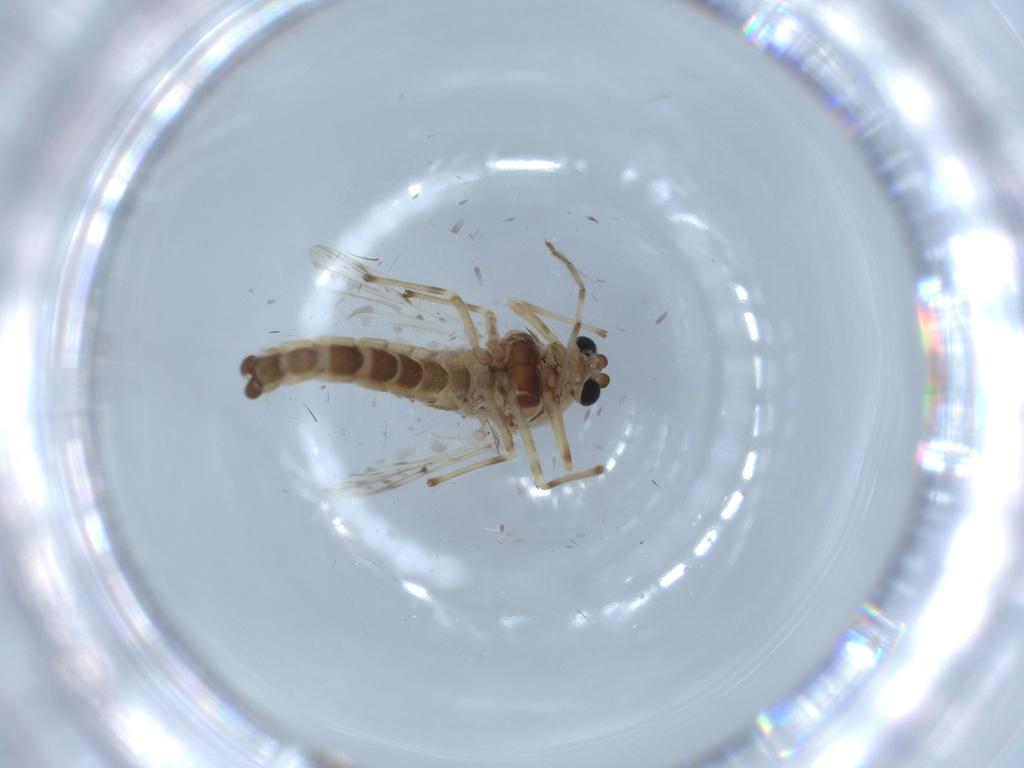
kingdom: Animalia
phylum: Arthropoda
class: Insecta
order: Diptera
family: Chironomidae
